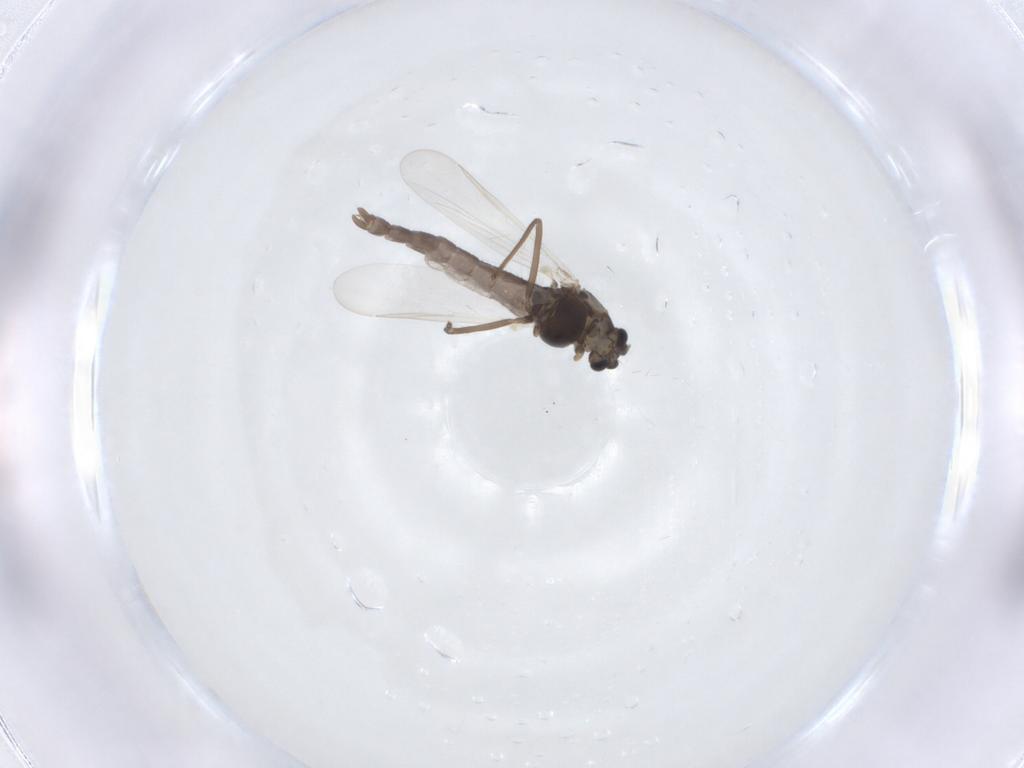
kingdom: Animalia
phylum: Arthropoda
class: Insecta
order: Diptera
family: Chironomidae
